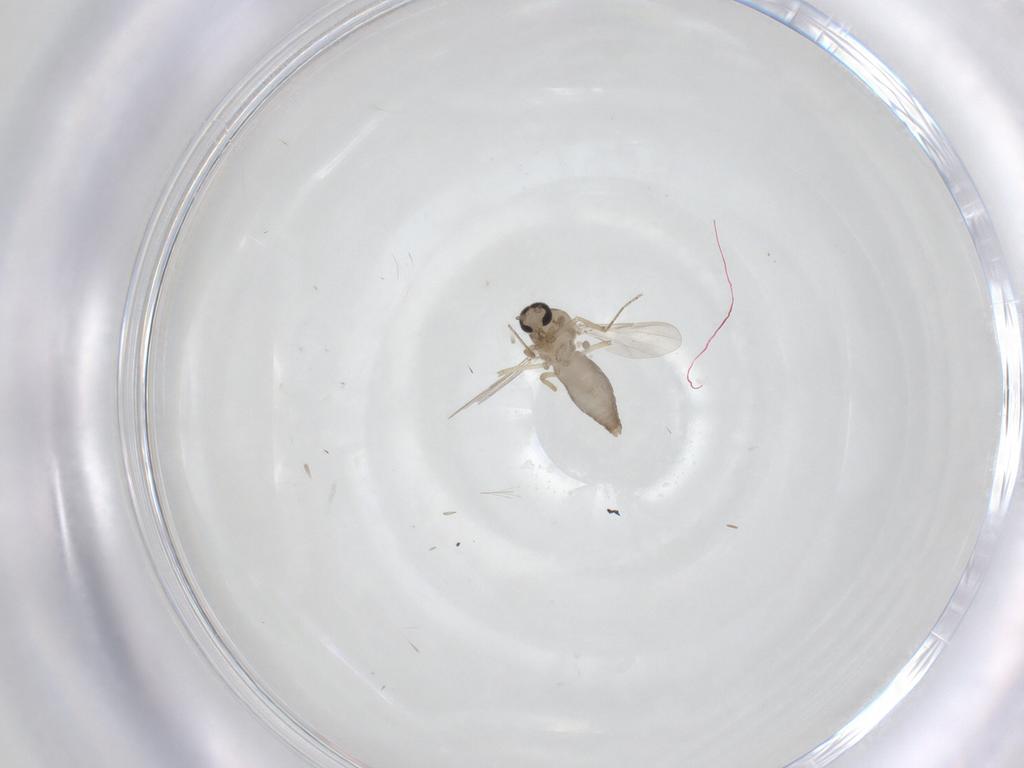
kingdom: Animalia
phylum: Arthropoda
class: Insecta
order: Diptera
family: Ceratopogonidae
